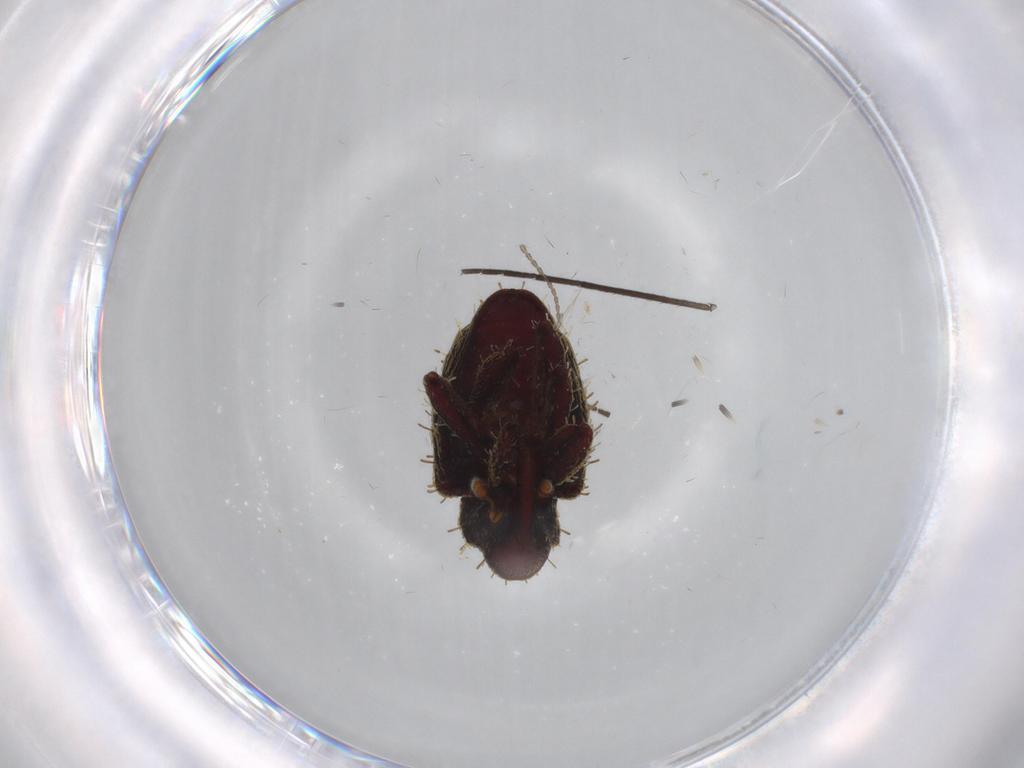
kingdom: Animalia
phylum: Arthropoda
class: Insecta
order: Coleoptera
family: Curculionidae
